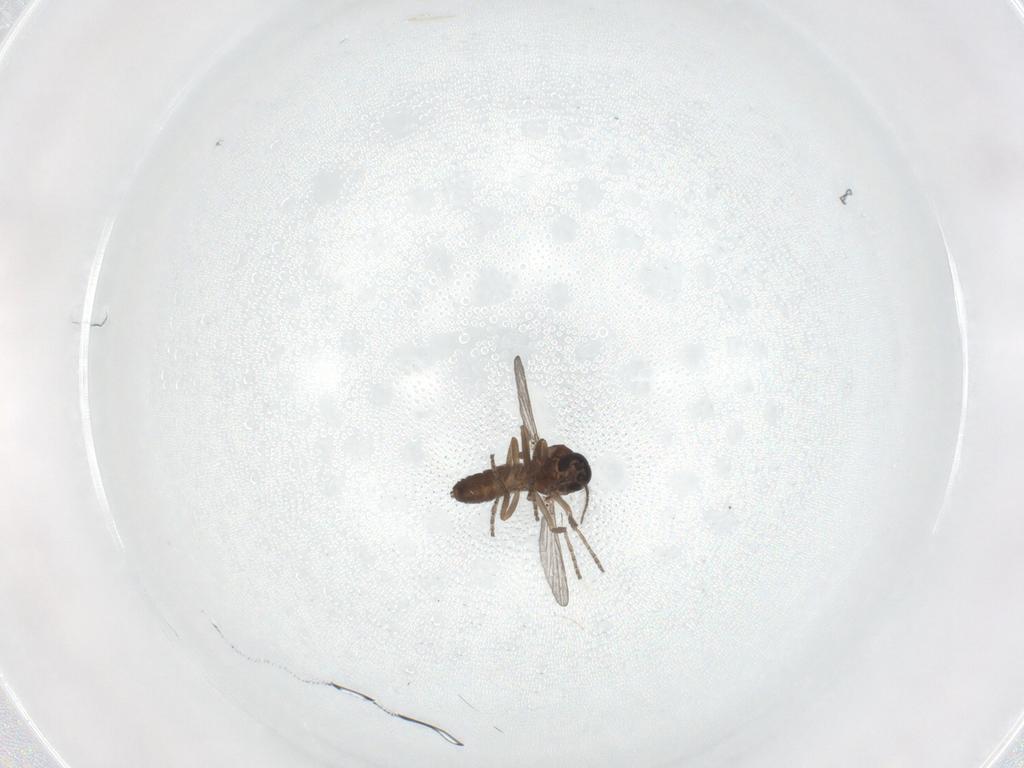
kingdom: Animalia
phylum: Arthropoda
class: Insecta
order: Diptera
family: Ceratopogonidae
